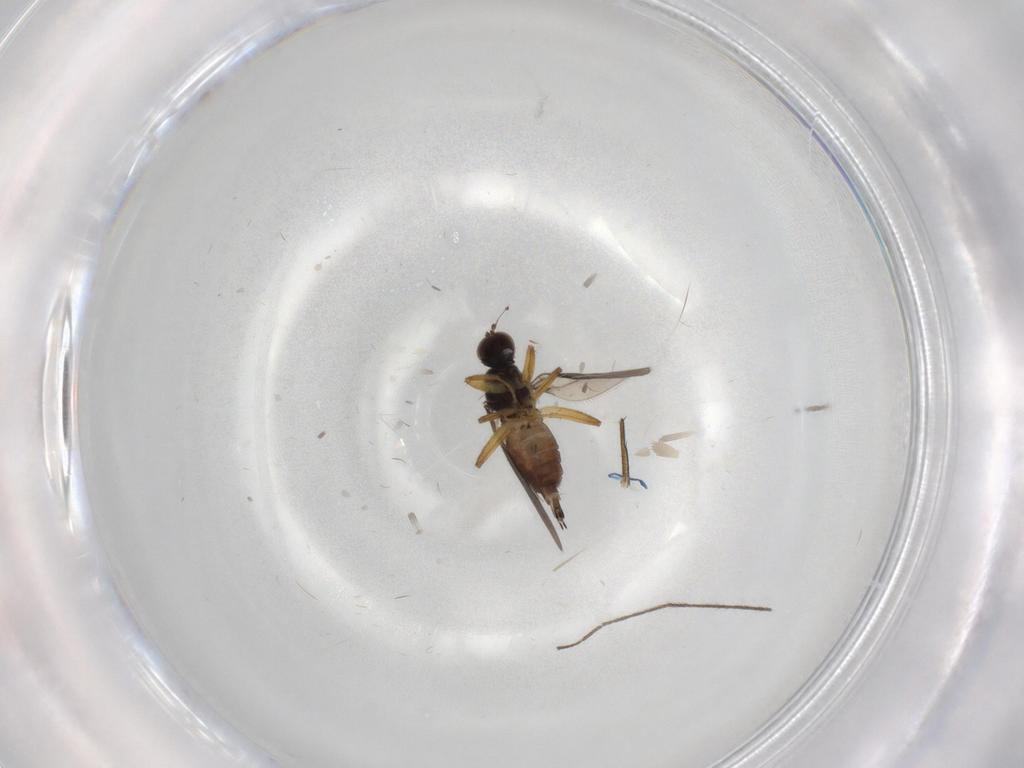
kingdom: Animalia
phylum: Arthropoda
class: Insecta
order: Diptera
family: Hybotidae
